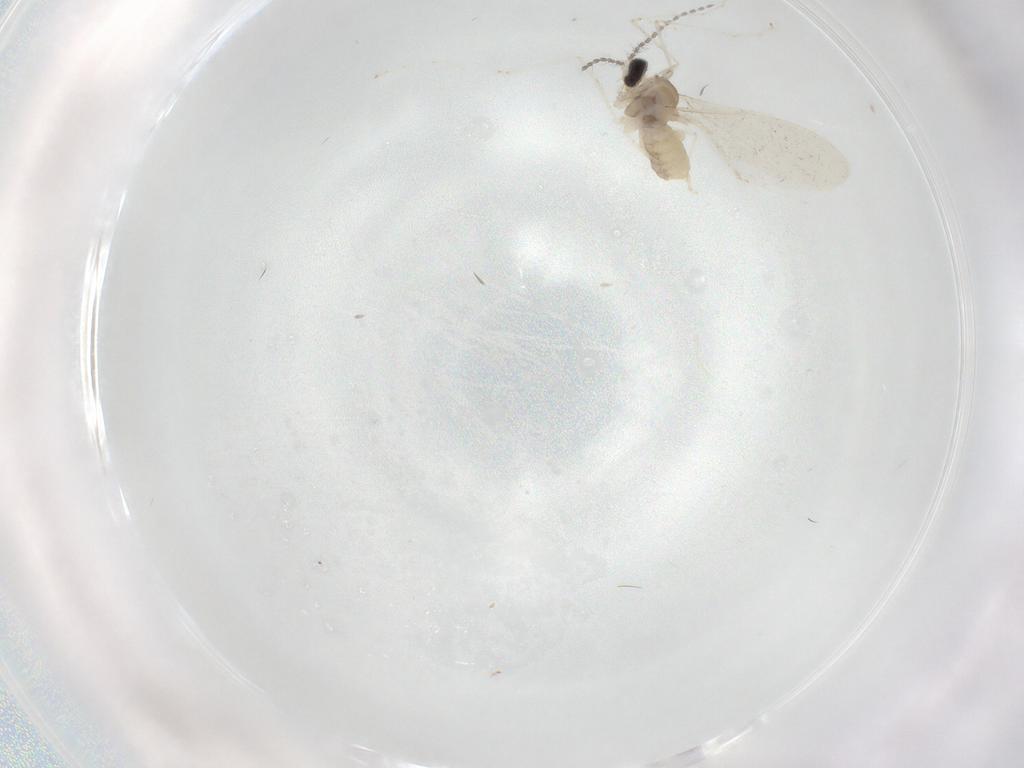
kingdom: Animalia
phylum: Arthropoda
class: Insecta
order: Diptera
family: Cecidomyiidae
